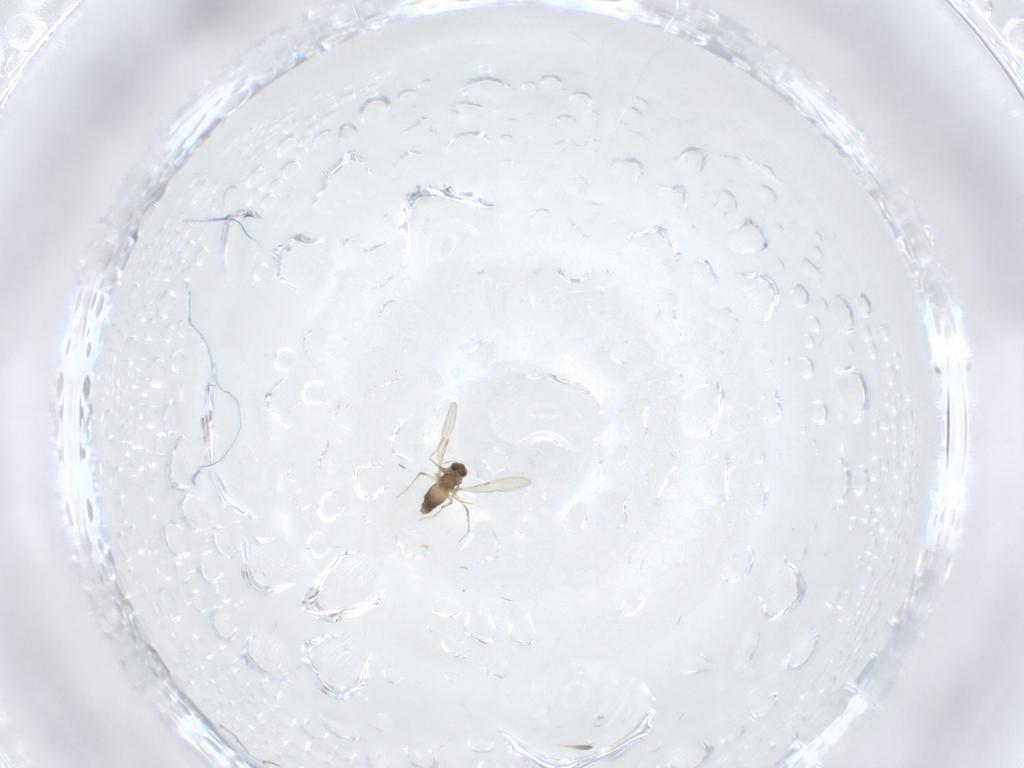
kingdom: Animalia
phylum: Arthropoda
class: Insecta
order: Diptera
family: Chironomidae
